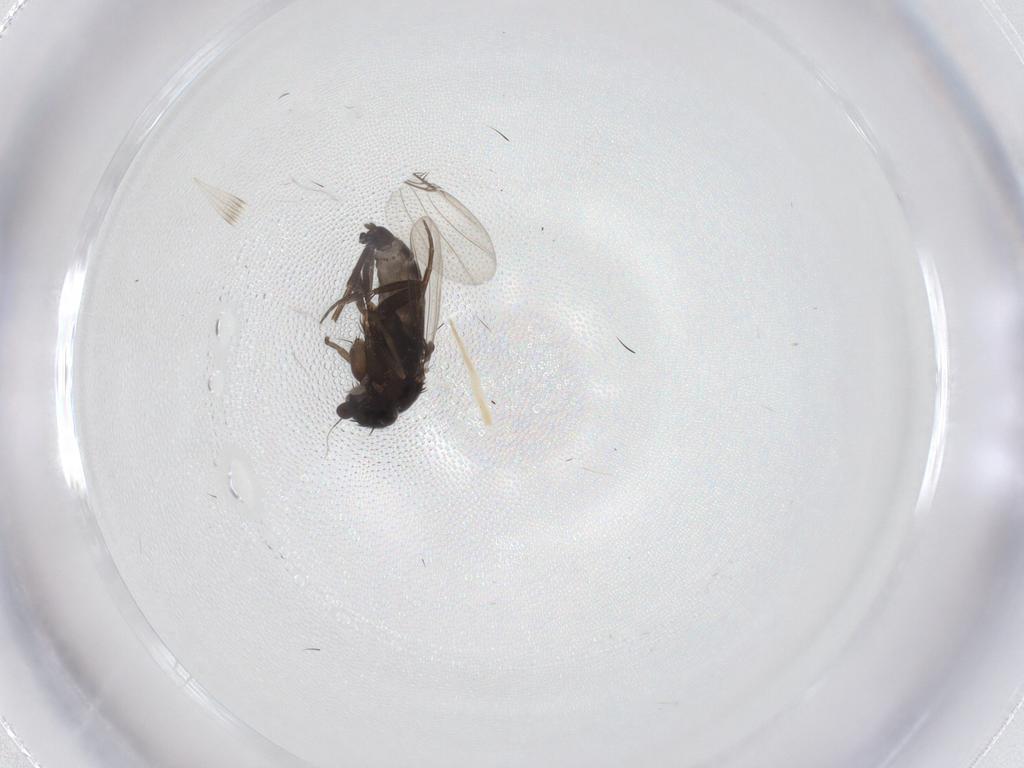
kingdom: Animalia
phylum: Arthropoda
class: Insecta
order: Diptera
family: Phoridae
